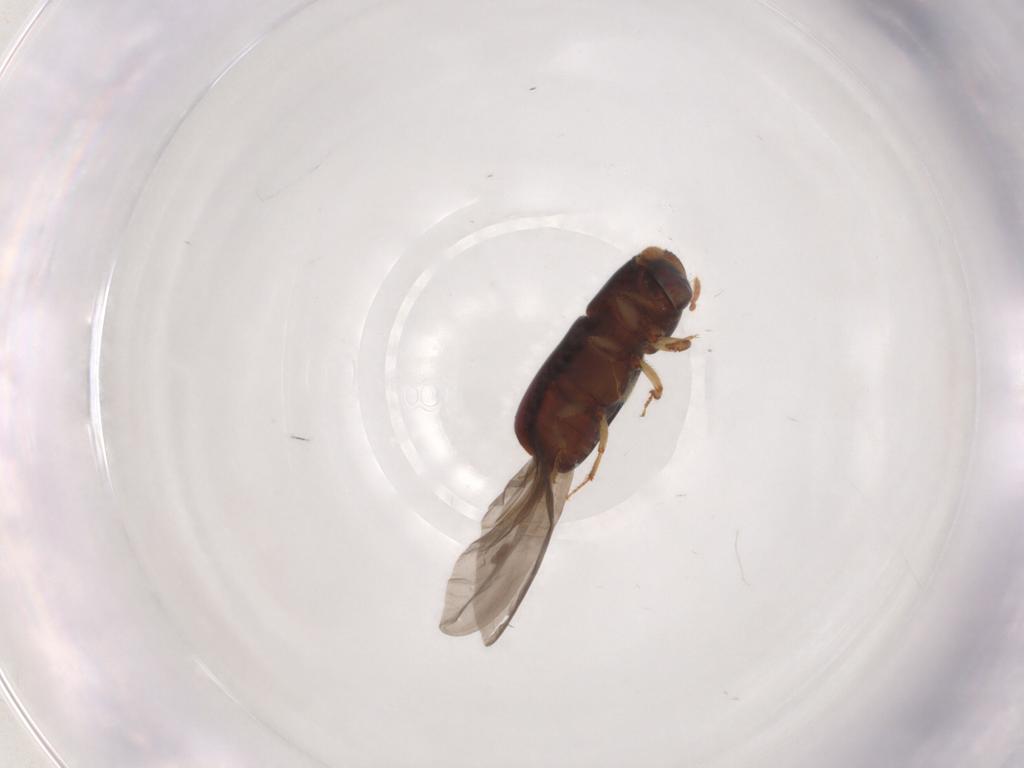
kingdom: Animalia
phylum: Arthropoda
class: Insecta
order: Coleoptera
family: Curculionidae
